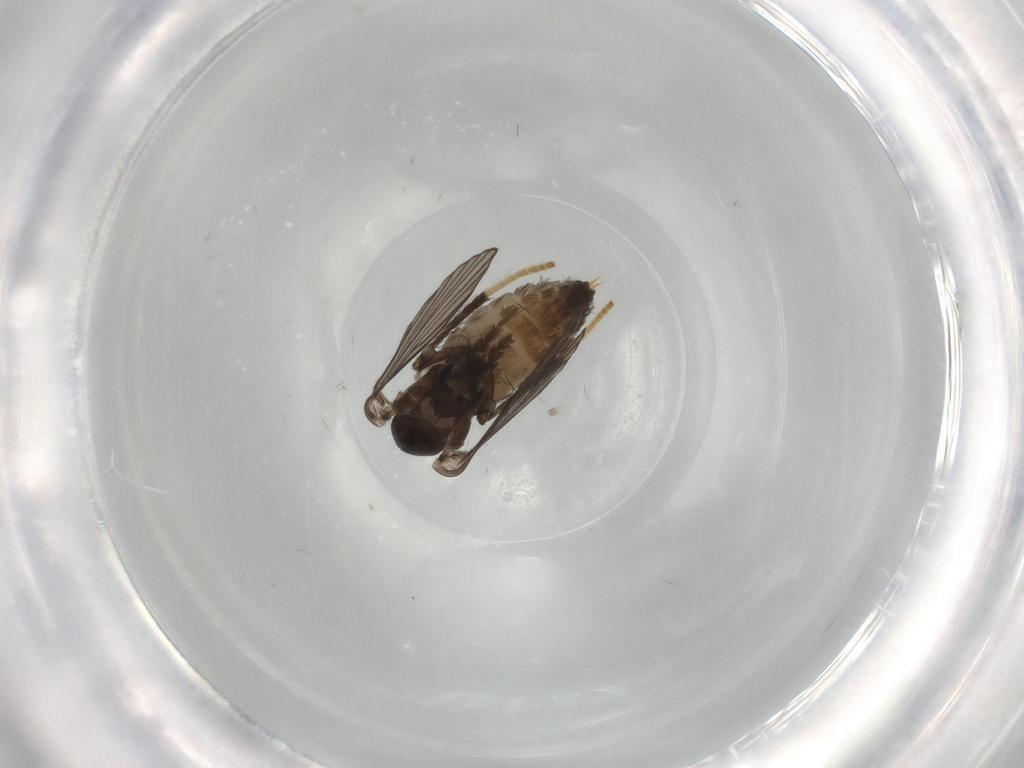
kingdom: Animalia
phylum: Arthropoda
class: Insecta
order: Diptera
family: Psychodidae
